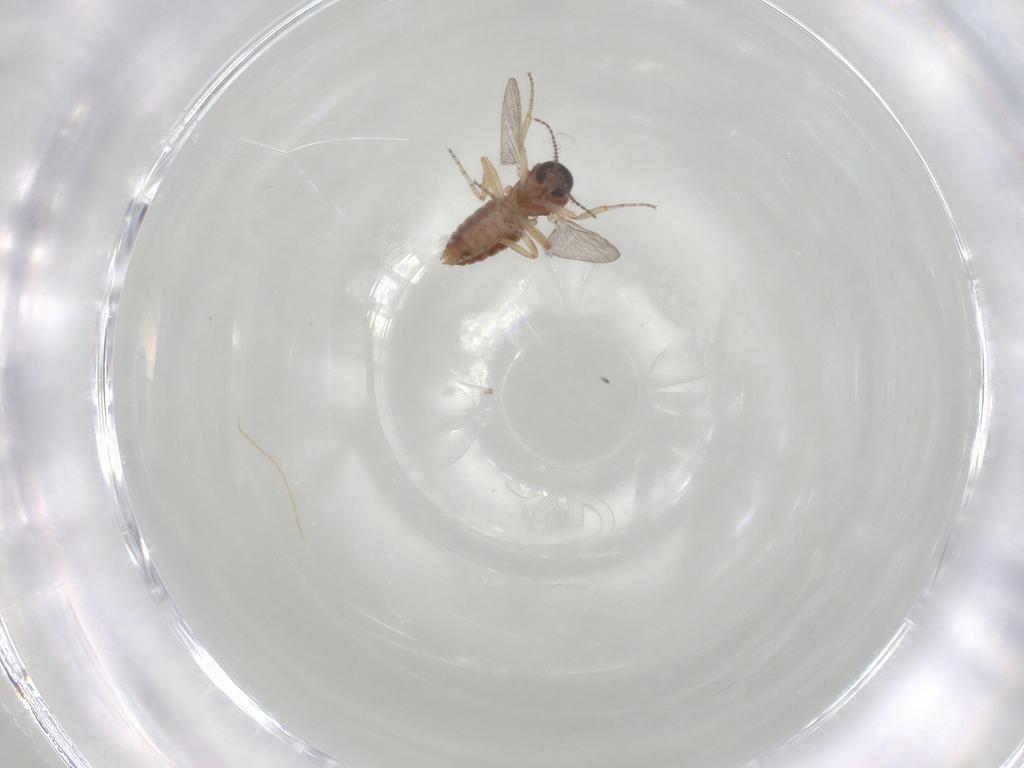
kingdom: Animalia
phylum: Arthropoda
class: Insecta
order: Diptera
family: Ceratopogonidae
